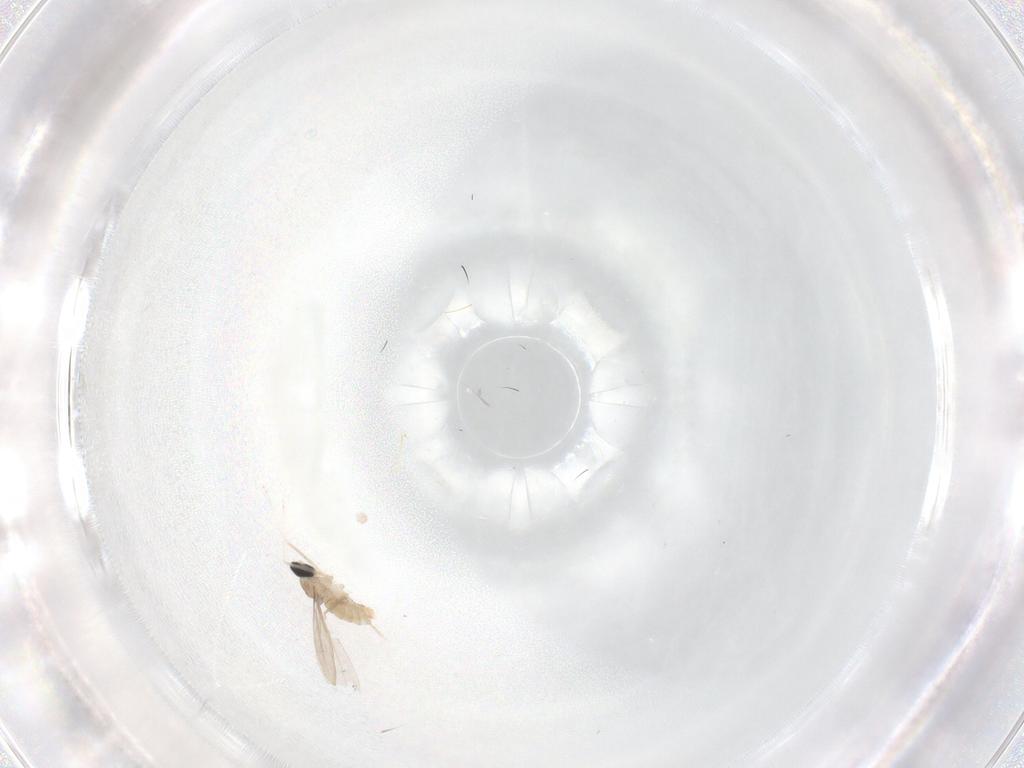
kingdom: Animalia
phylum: Arthropoda
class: Insecta
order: Diptera
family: Cecidomyiidae
